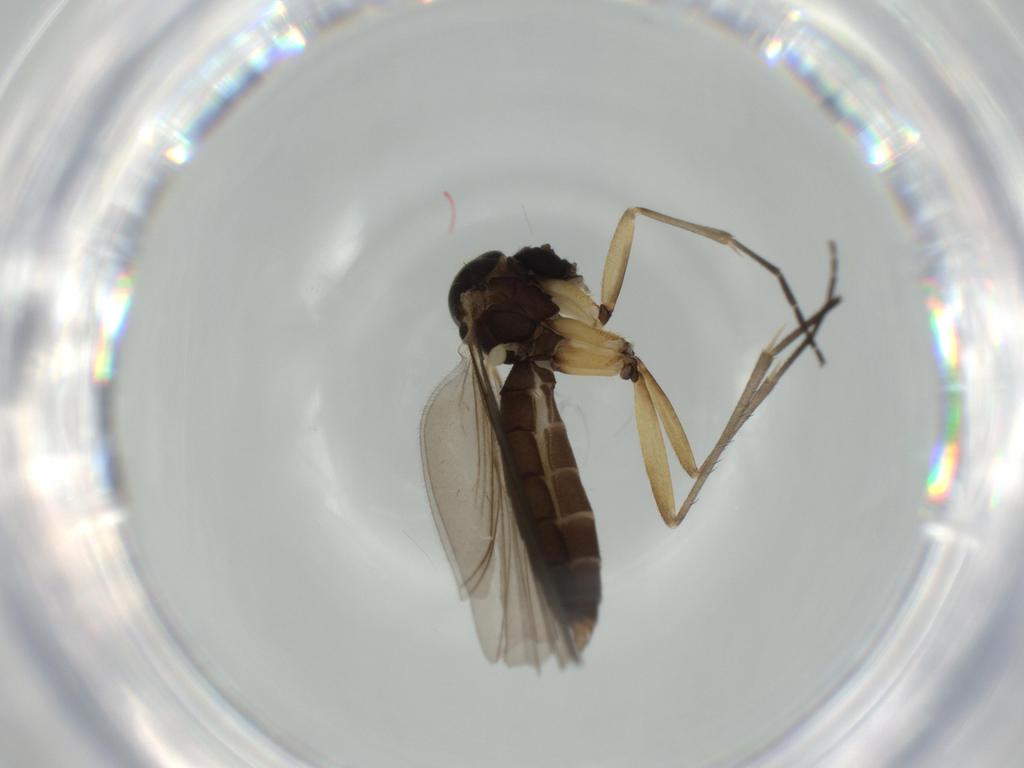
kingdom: Animalia
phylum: Arthropoda
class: Insecta
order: Diptera
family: Mycetophilidae
